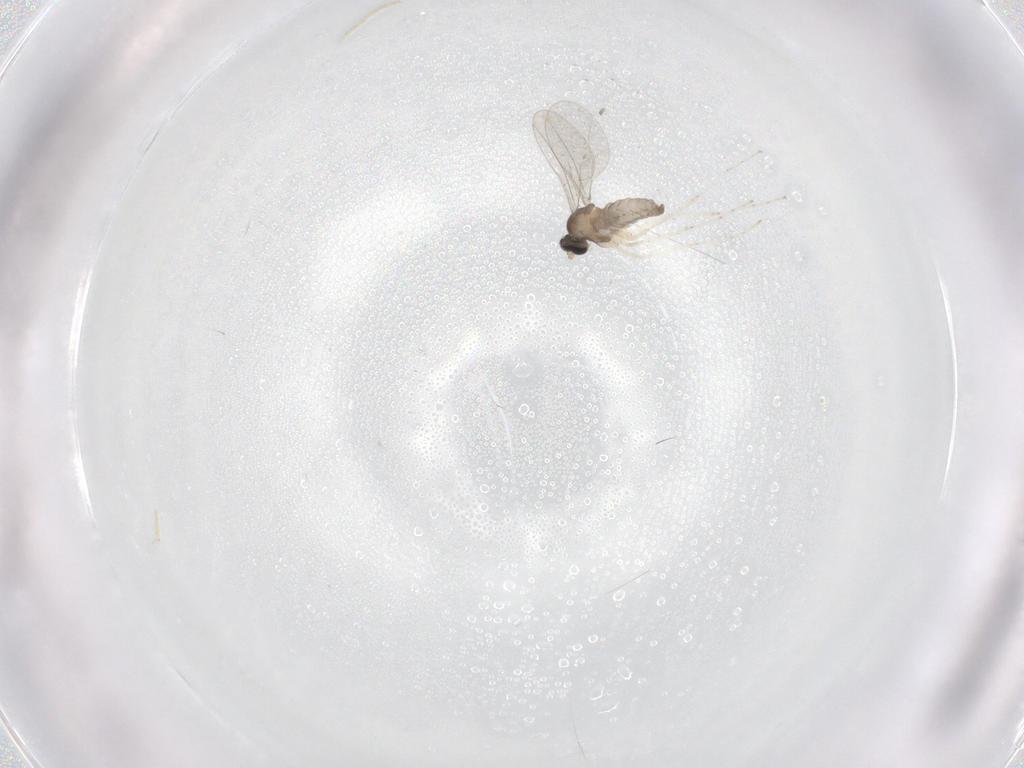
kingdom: Animalia
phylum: Arthropoda
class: Insecta
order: Diptera
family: Cecidomyiidae
